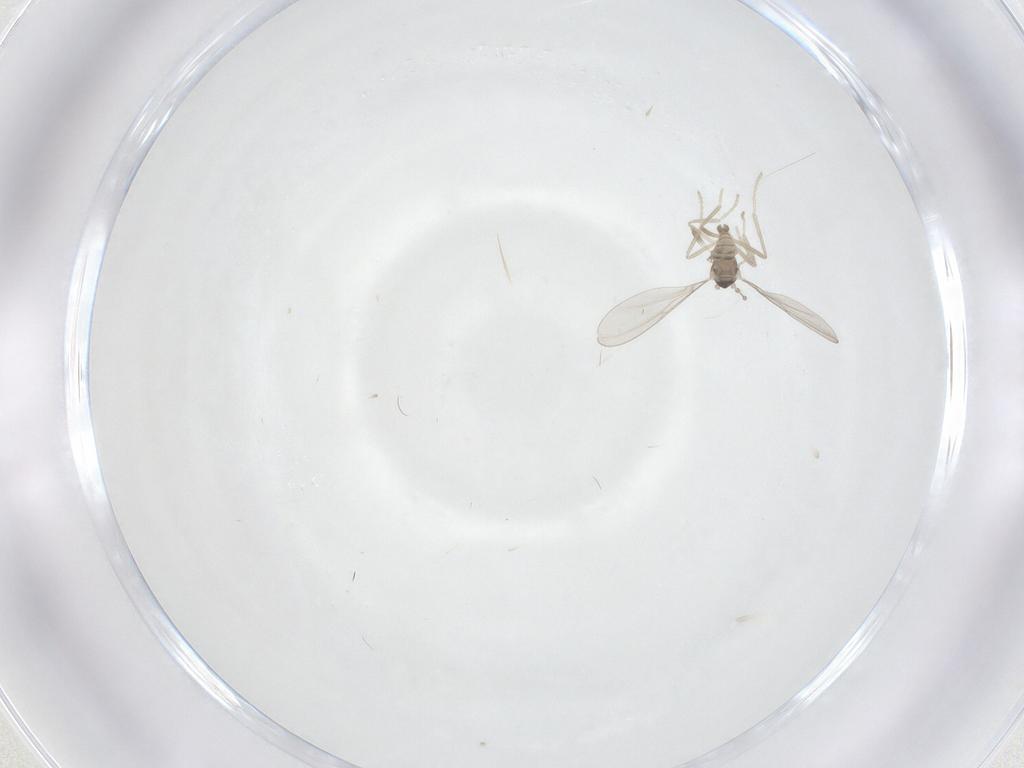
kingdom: Animalia
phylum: Arthropoda
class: Insecta
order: Diptera
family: Cecidomyiidae
